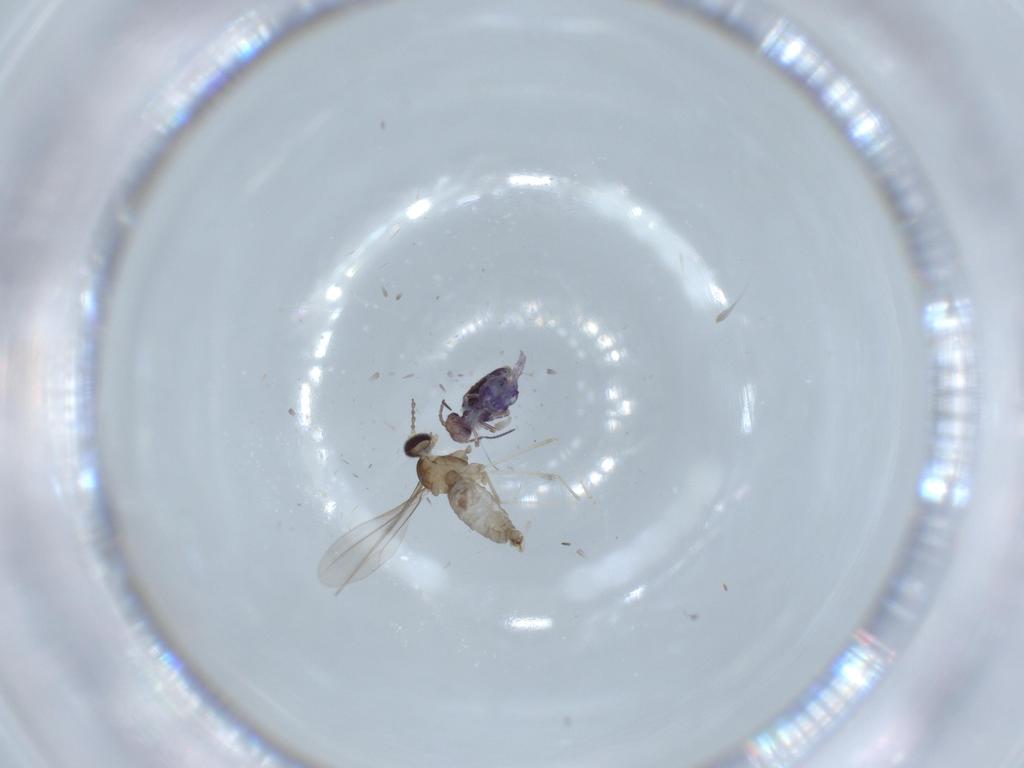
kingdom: Animalia
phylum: Arthropoda
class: Insecta
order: Diptera
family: Cecidomyiidae
